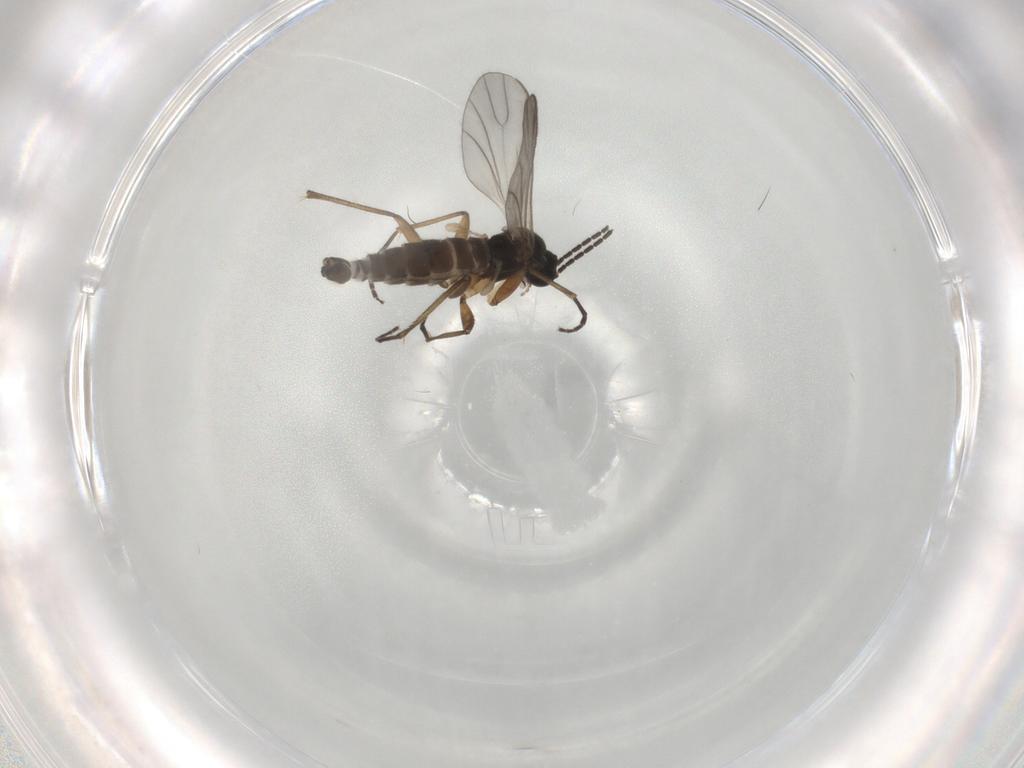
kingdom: Animalia
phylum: Arthropoda
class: Insecta
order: Diptera
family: Sciaridae
